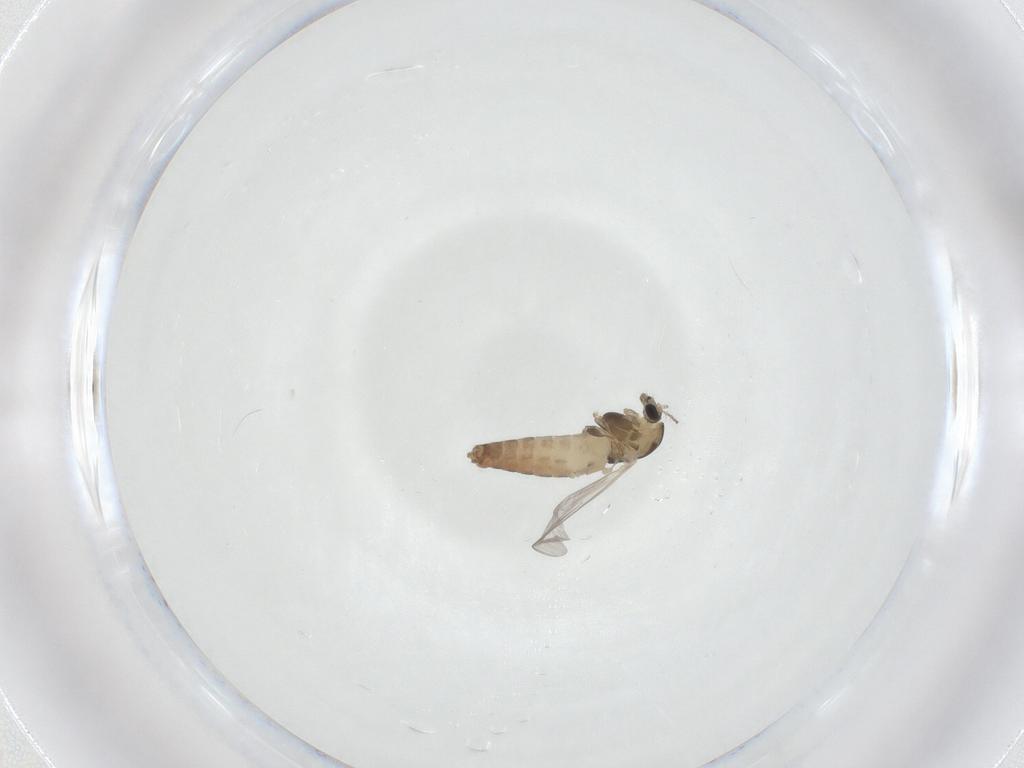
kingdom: Animalia
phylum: Arthropoda
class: Insecta
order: Diptera
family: Chironomidae
